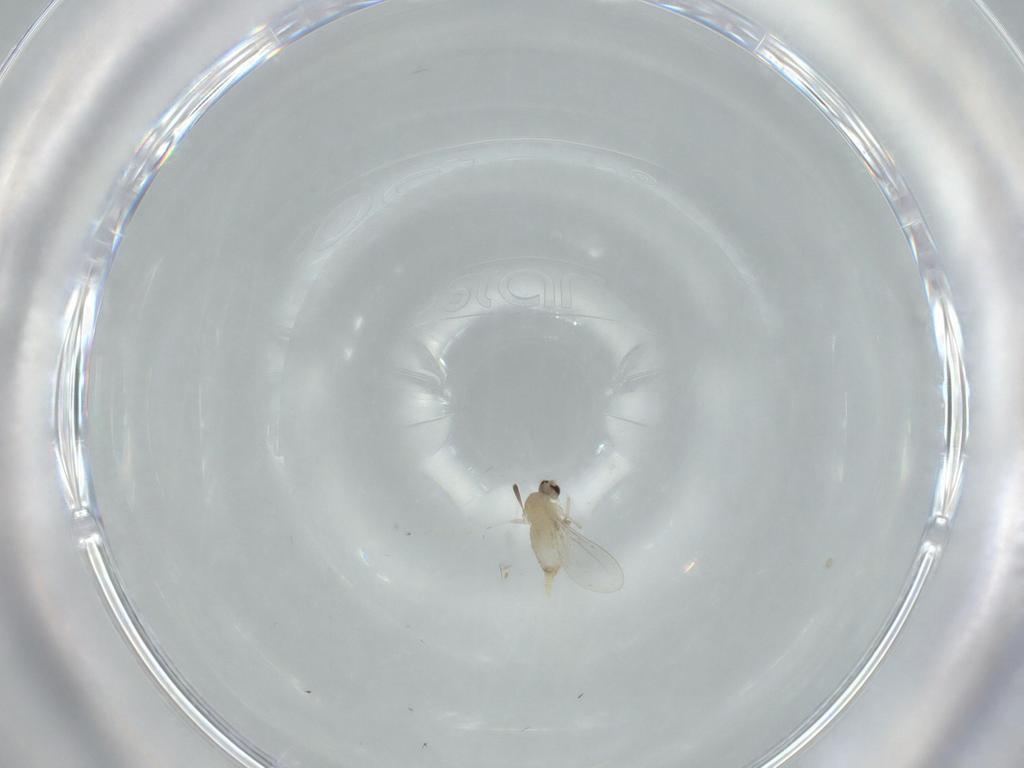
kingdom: Animalia
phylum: Arthropoda
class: Insecta
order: Diptera
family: Cecidomyiidae
